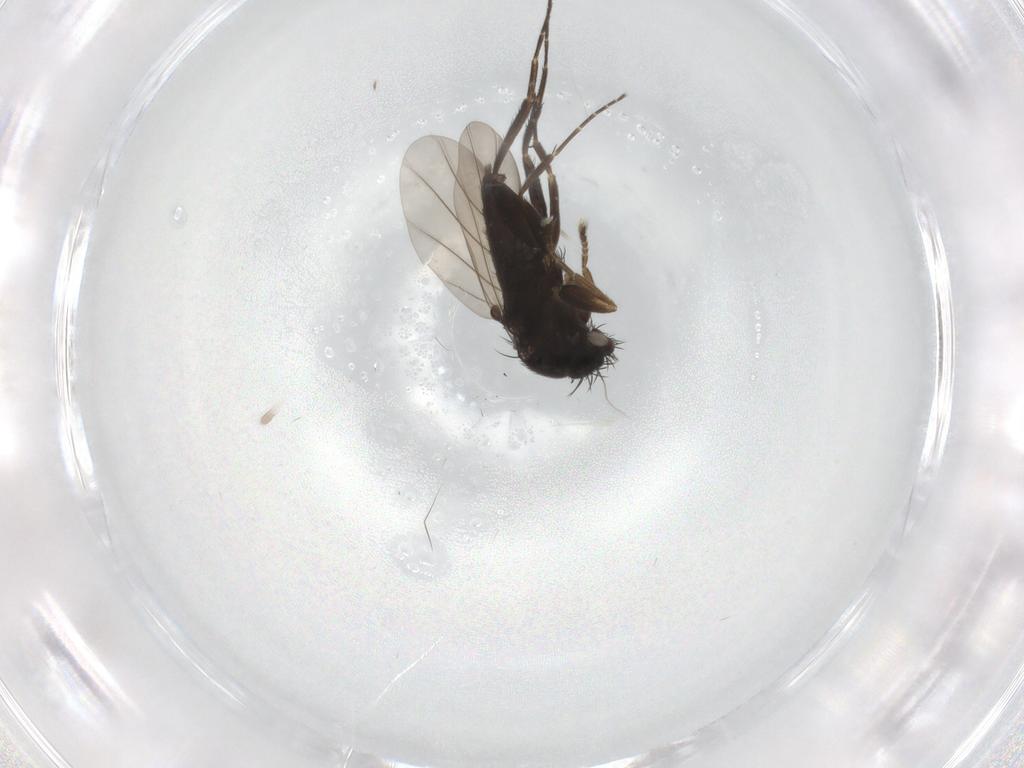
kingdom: Animalia
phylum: Arthropoda
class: Insecta
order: Diptera
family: Phoridae
